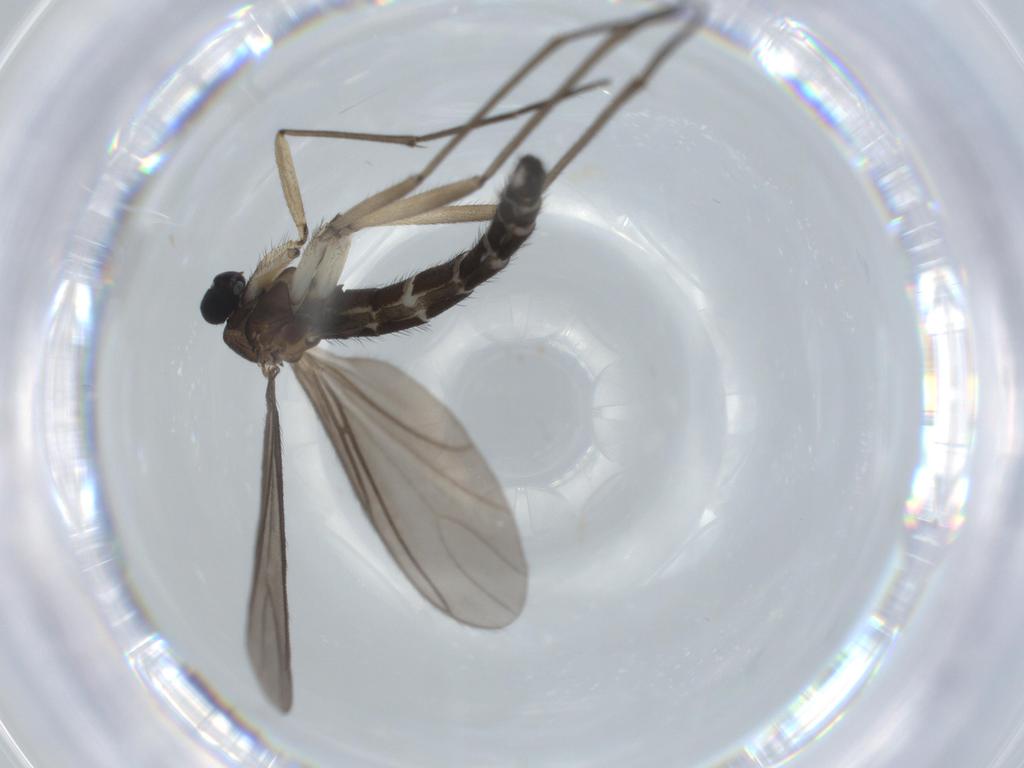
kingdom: Animalia
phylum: Arthropoda
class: Insecta
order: Diptera
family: Sciaridae
